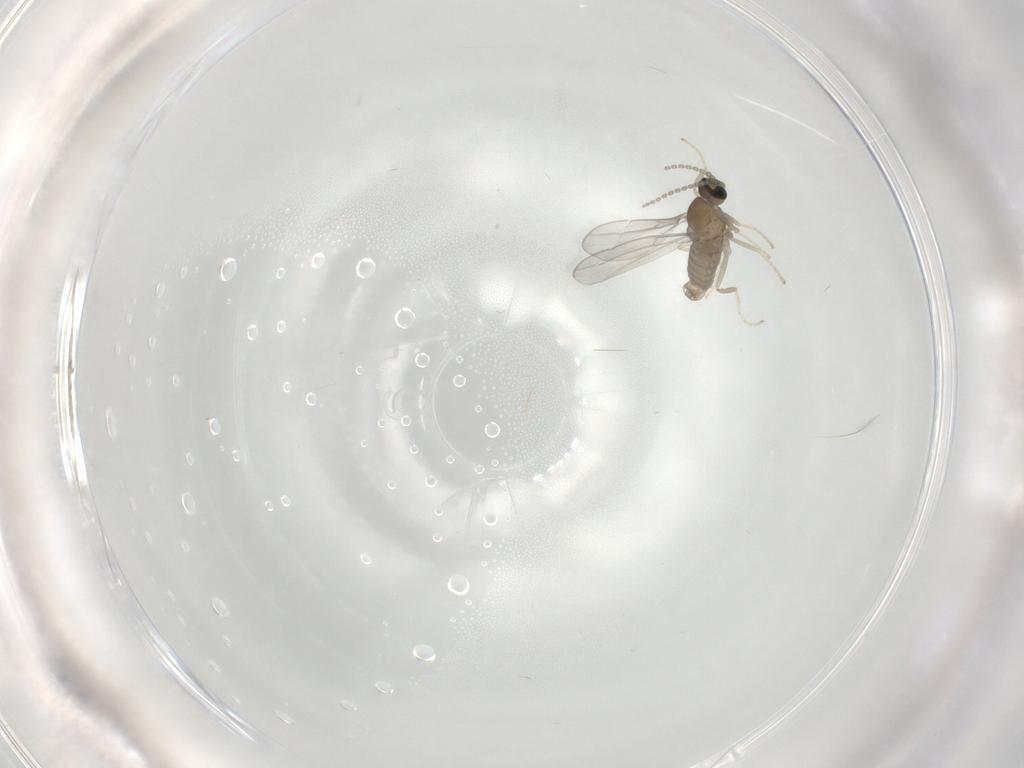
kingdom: Animalia
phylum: Arthropoda
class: Insecta
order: Diptera
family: Cecidomyiidae
